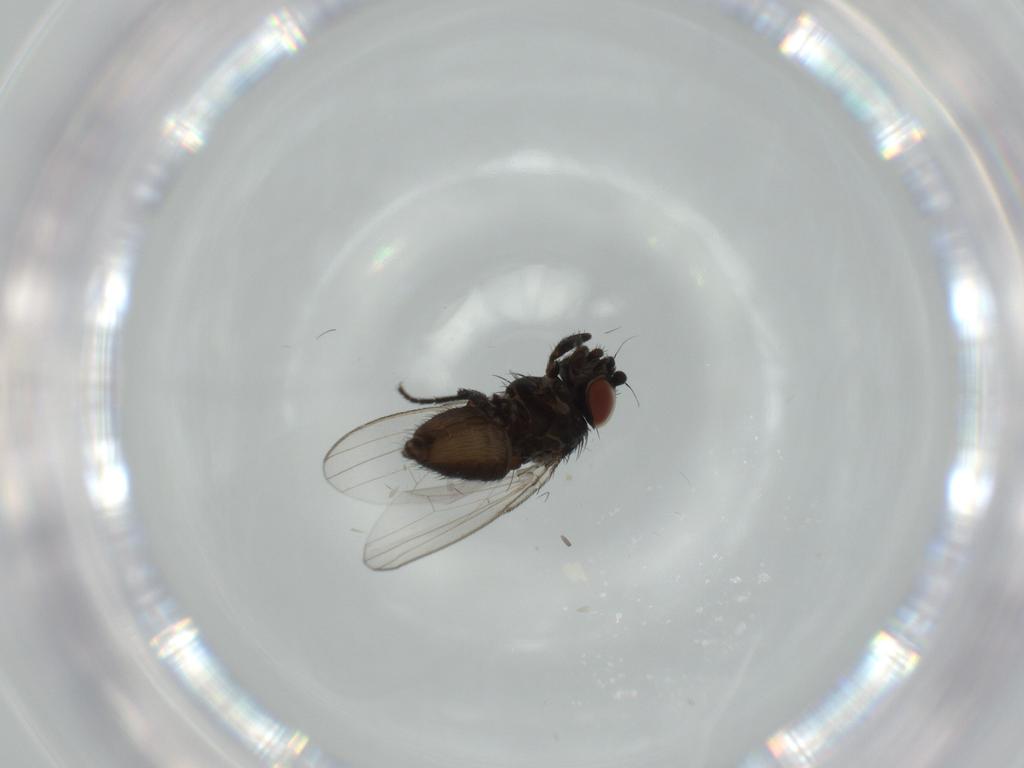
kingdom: Animalia
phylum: Arthropoda
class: Insecta
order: Diptera
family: Milichiidae
